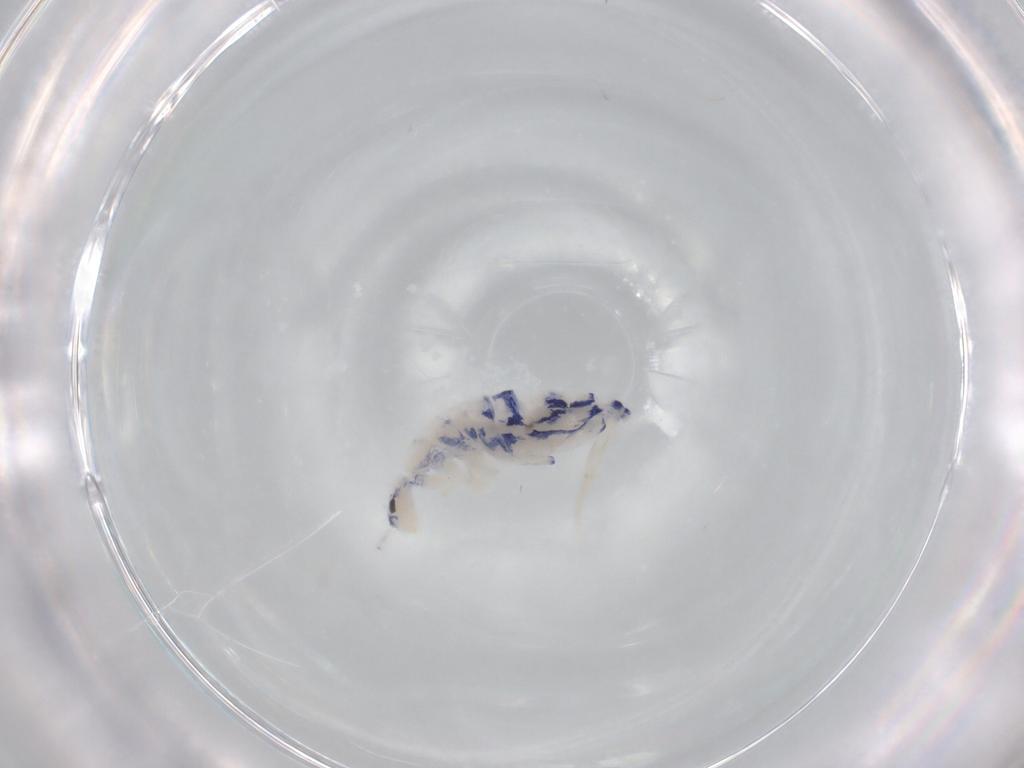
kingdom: Animalia
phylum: Arthropoda
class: Collembola
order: Entomobryomorpha
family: Entomobryidae
